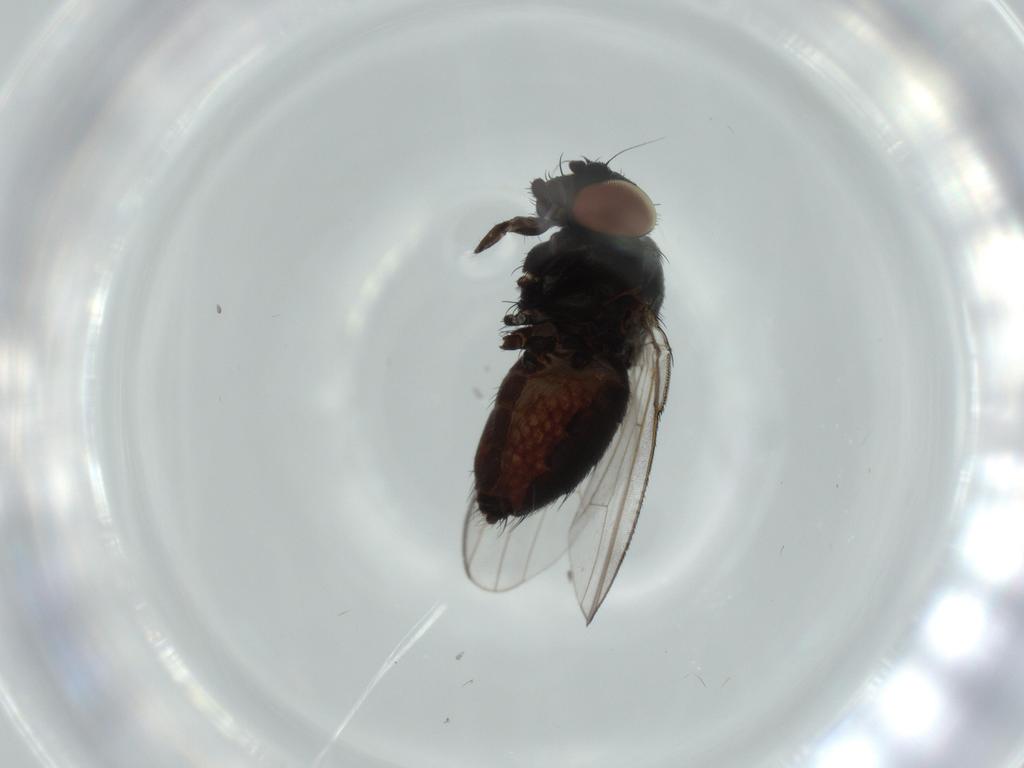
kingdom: Animalia
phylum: Arthropoda
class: Insecta
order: Diptera
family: Milichiidae
